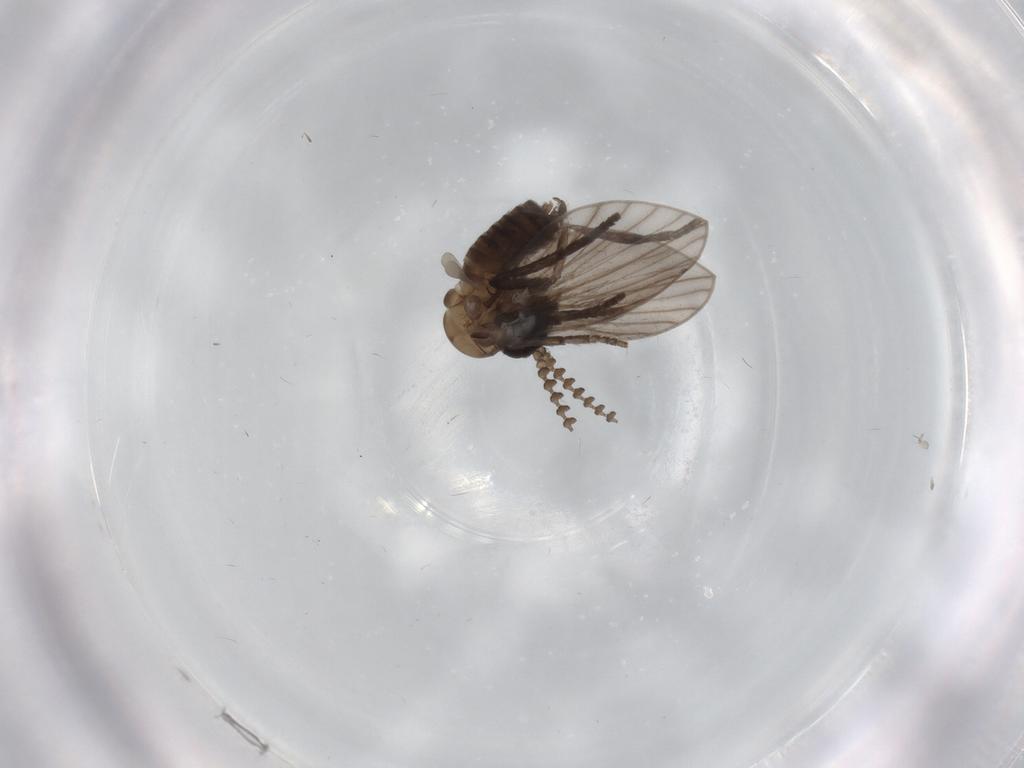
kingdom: Animalia
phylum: Arthropoda
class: Insecta
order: Diptera
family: Psychodidae
